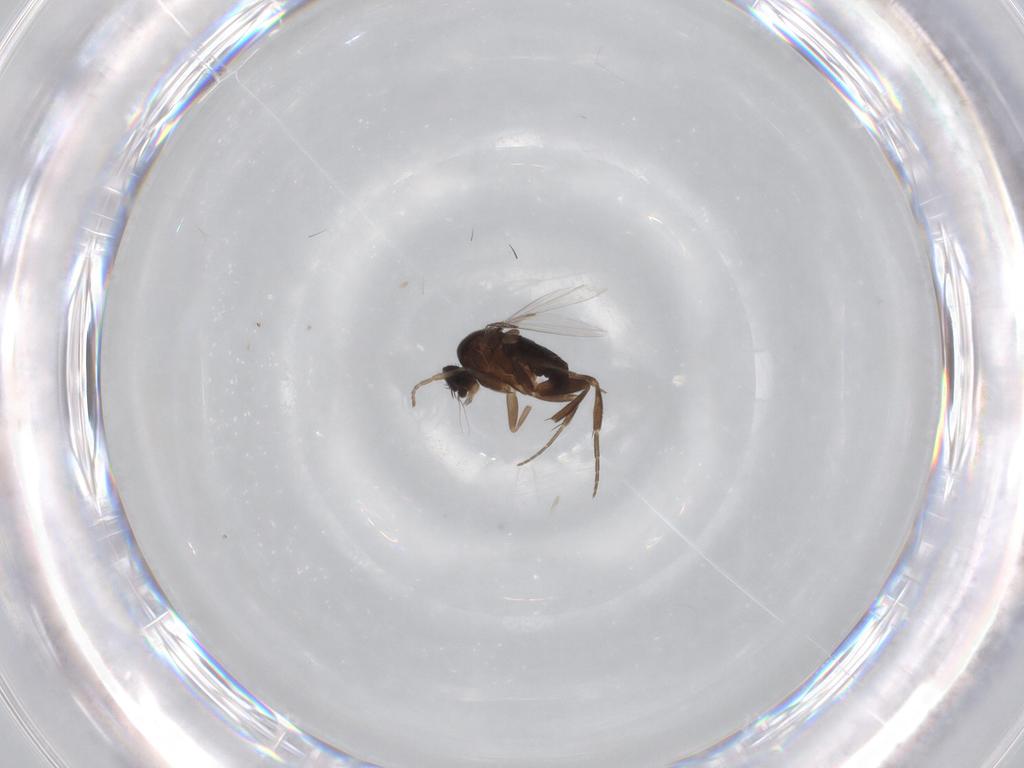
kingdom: Animalia
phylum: Arthropoda
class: Insecta
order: Diptera
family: Phoridae
